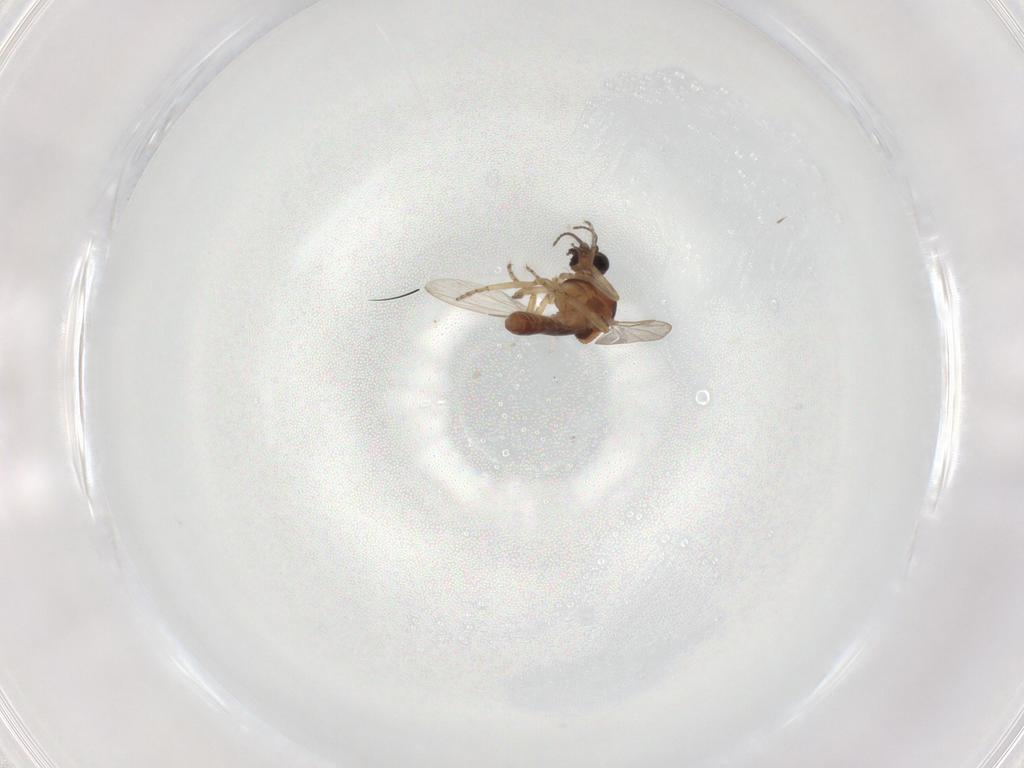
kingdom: Animalia
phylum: Arthropoda
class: Insecta
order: Diptera
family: Ceratopogonidae
